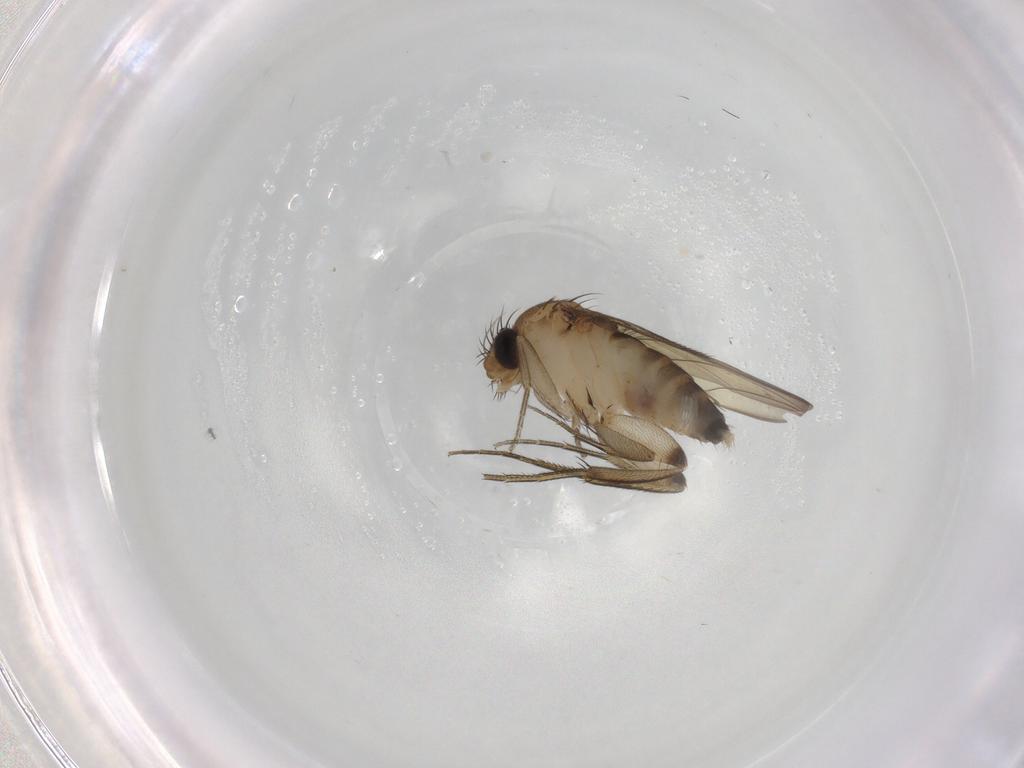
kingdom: Animalia
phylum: Arthropoda
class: Insecta
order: Diptera
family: Phoridae
